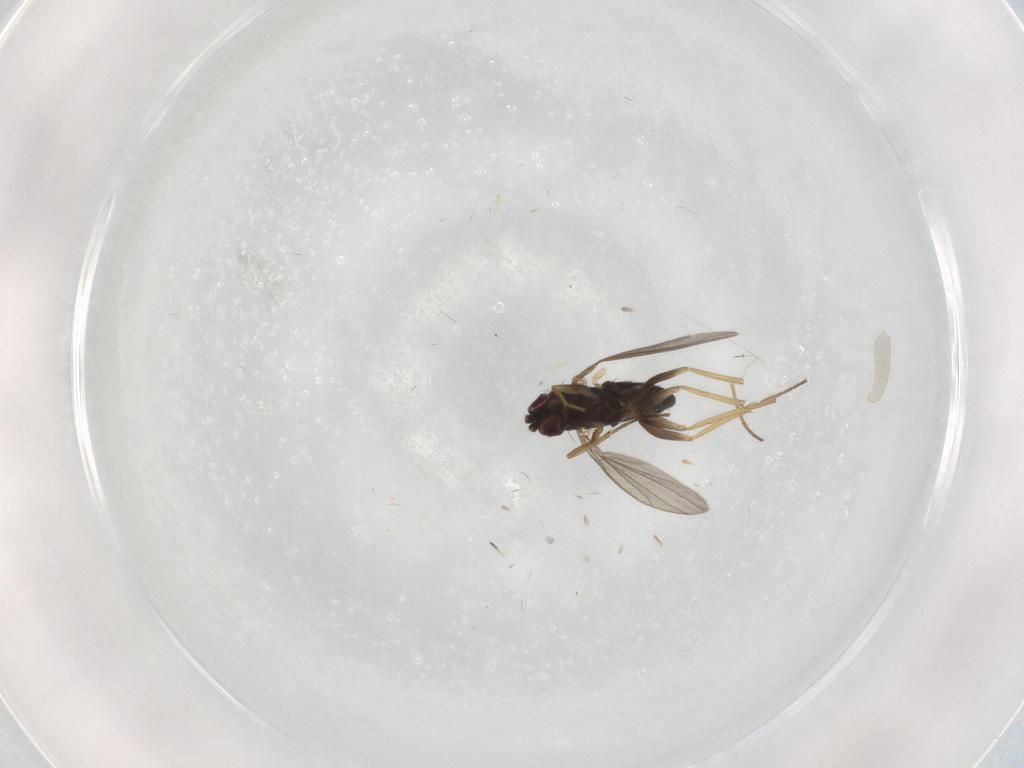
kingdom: Animalia
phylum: Arthropoda
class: Insecta
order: Diptera
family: Dolichopodidae
